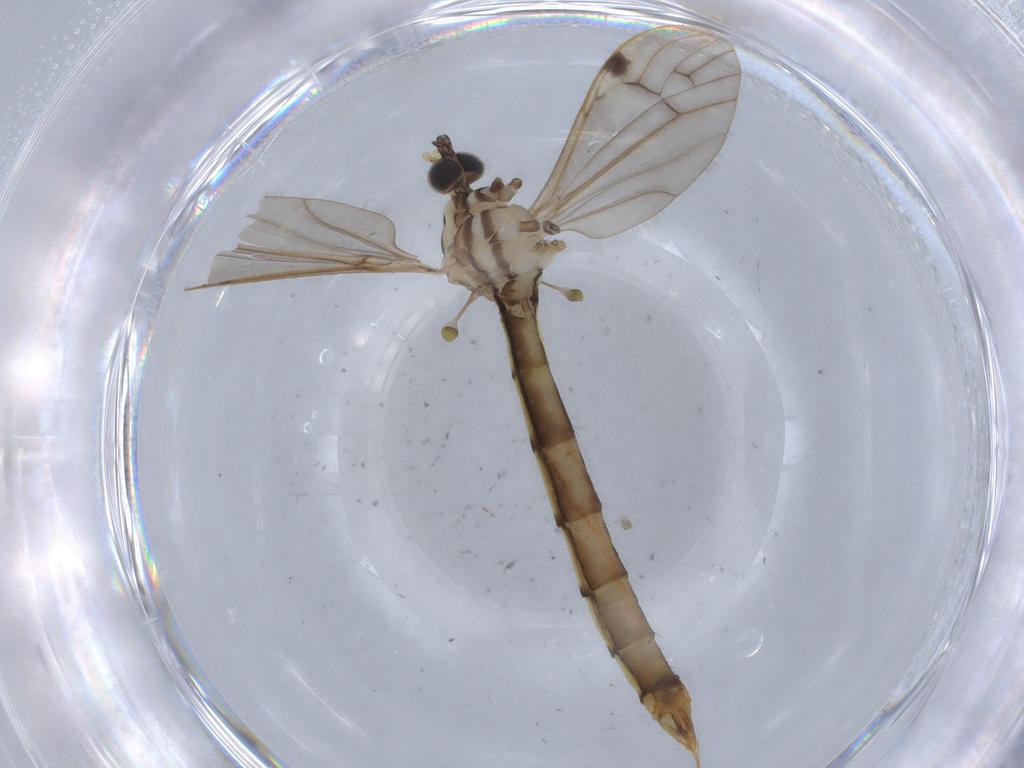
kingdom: Animalia
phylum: Arthropoda
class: Insecta
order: Diptera
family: Limoniidae
